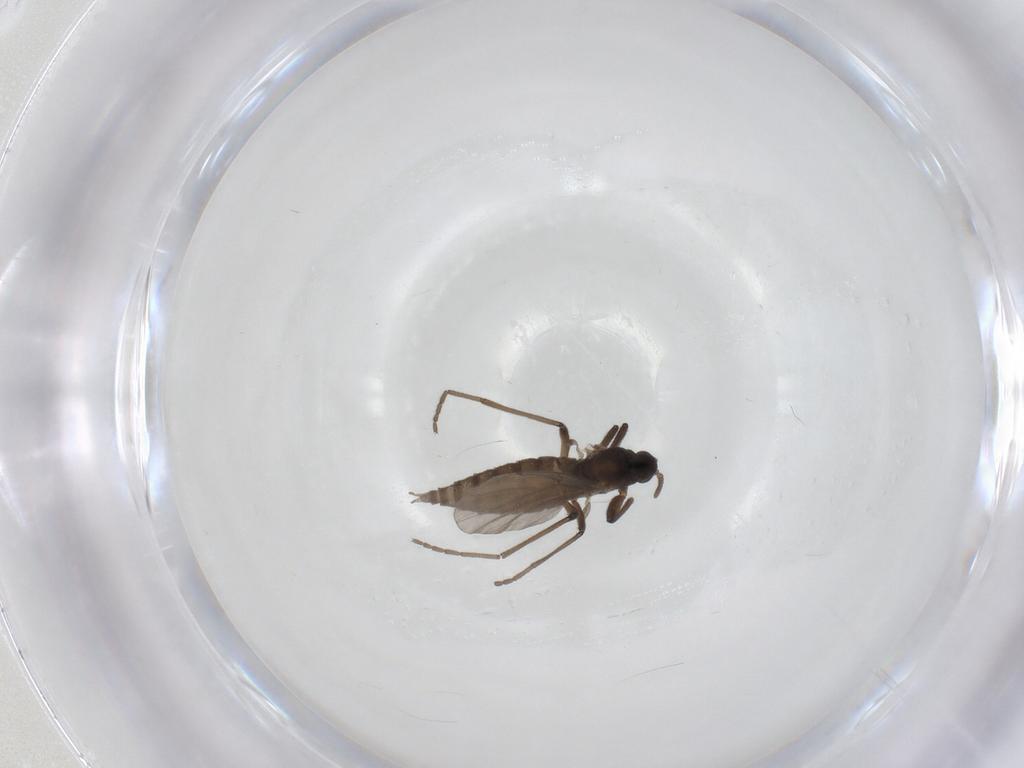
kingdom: Animalia
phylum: Arthropoda
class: Insecta
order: Diptera
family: Cecidomyiidae
